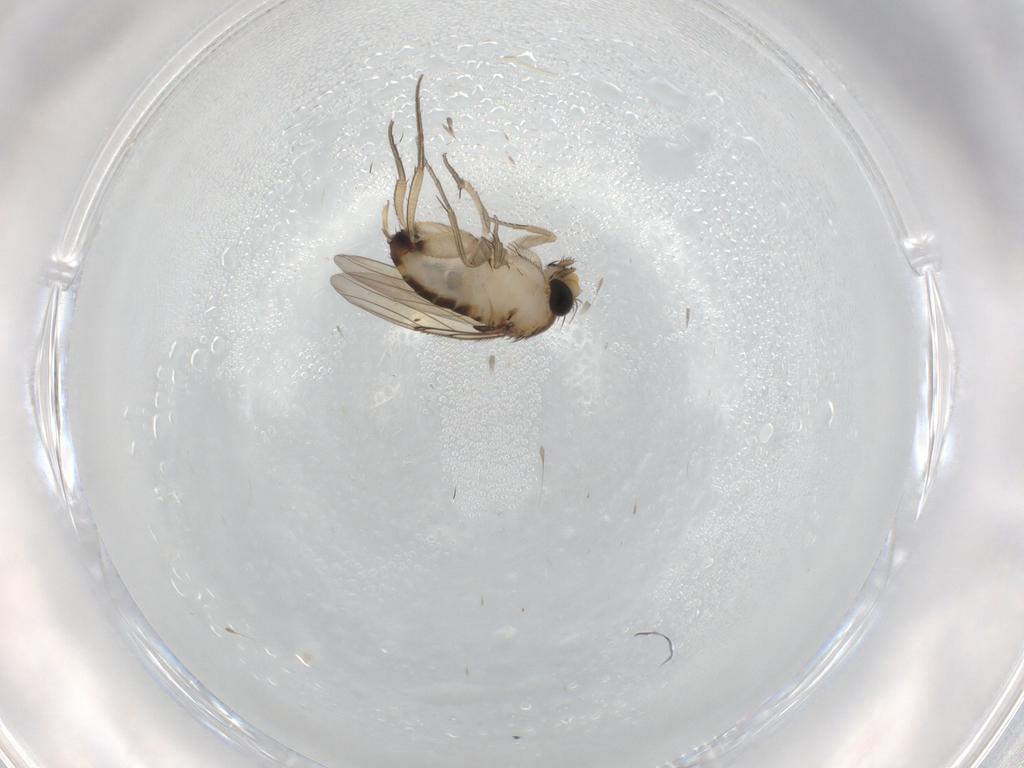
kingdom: Animalia
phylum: Arthropoda
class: Insecta
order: Diptera
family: Phoridae
